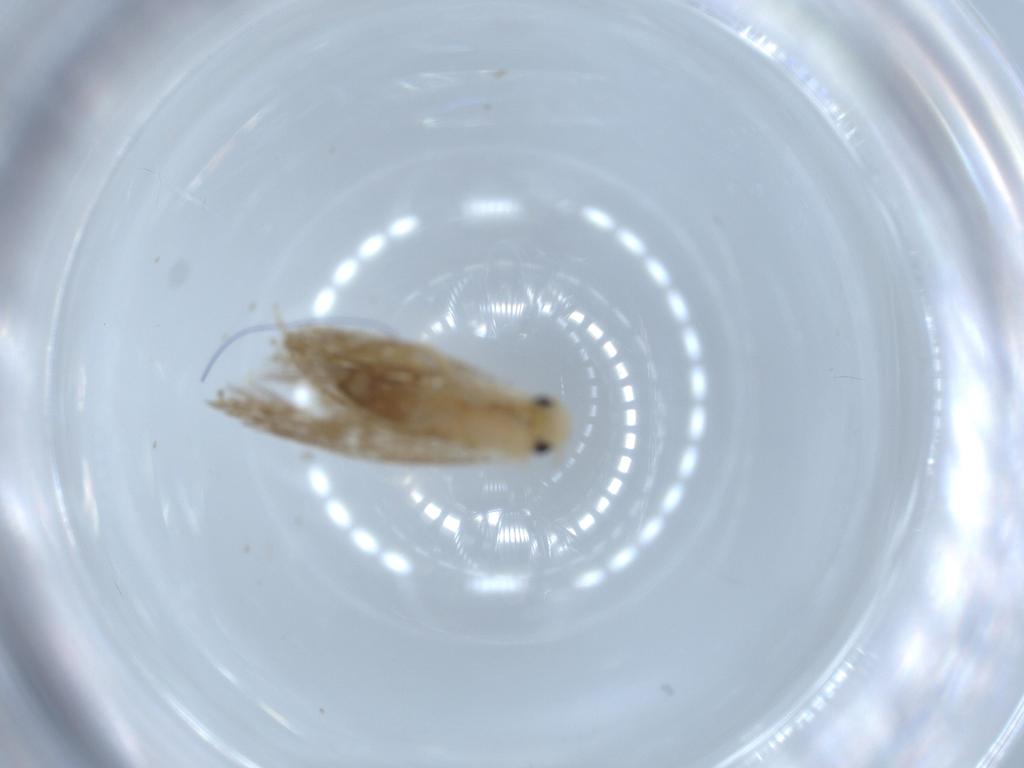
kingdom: Animalia
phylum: Arthropoda
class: Insecta
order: Lepidoptera
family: Tineidae
